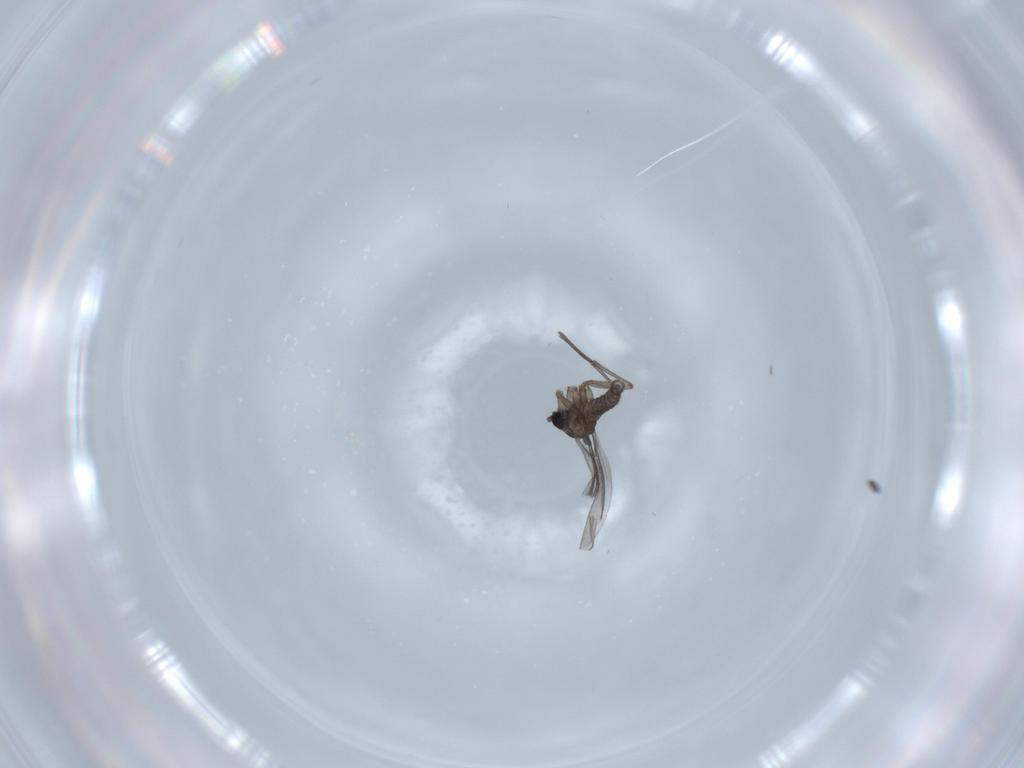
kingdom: Animalia
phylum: Arthropoda
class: Insecta
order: Diptera
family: Sciaridae
